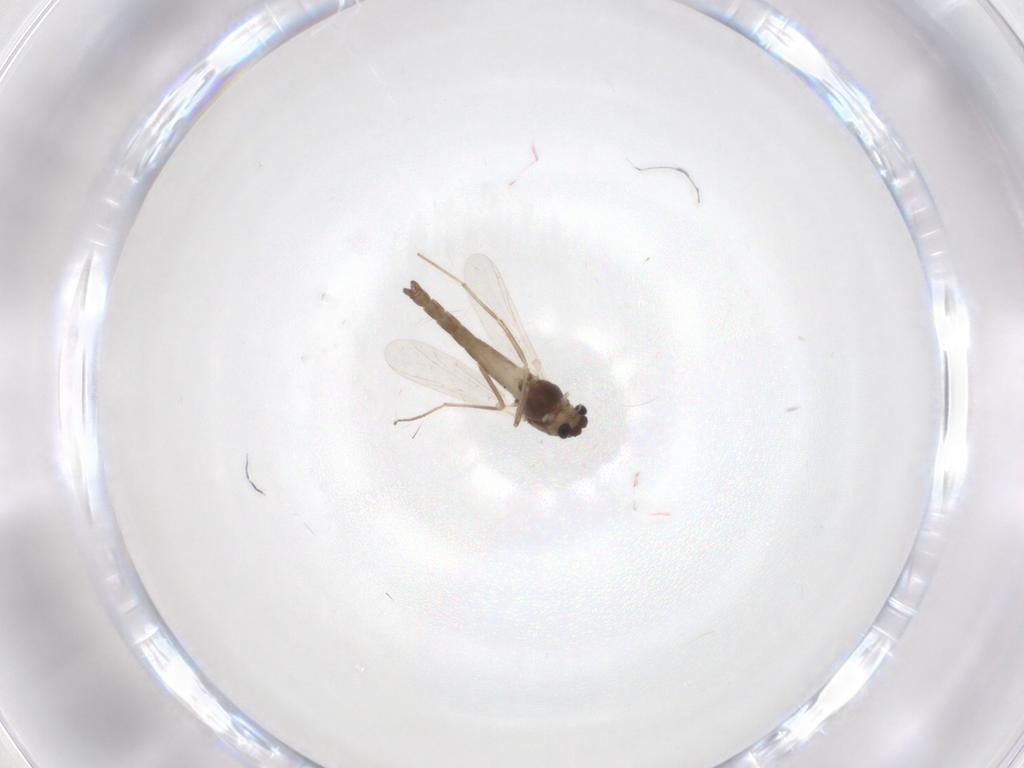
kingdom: Animalia
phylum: Arthropoda
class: Insecta
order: Diptera
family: Chironomidae
